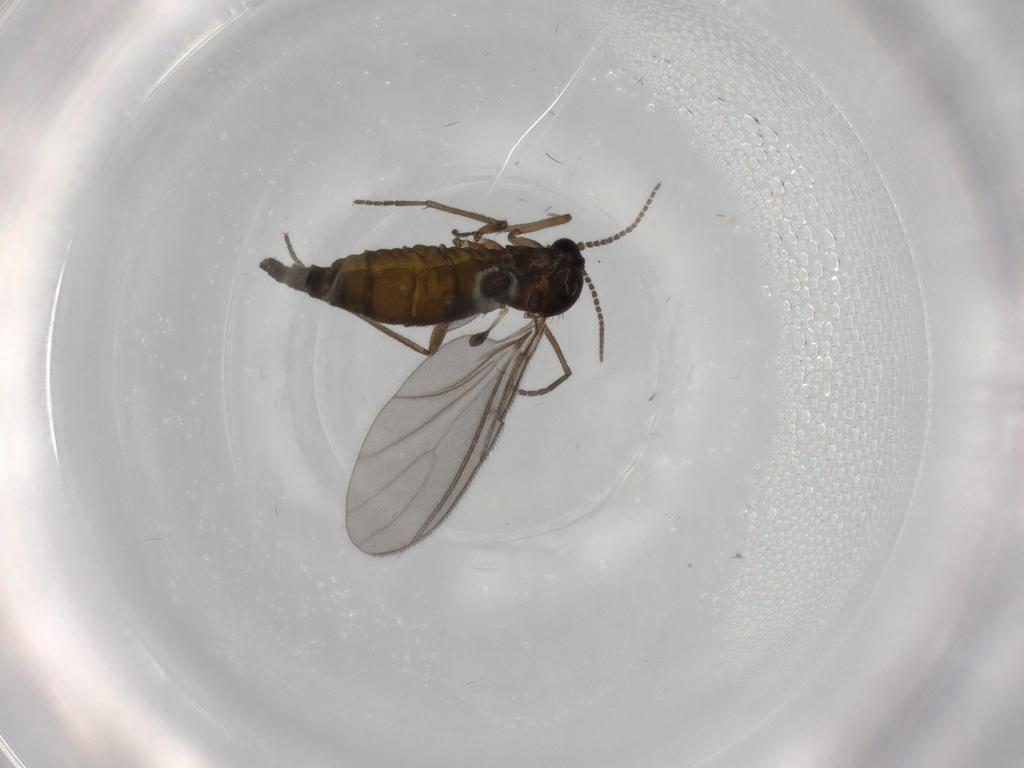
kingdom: Animalia
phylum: Arthropoda
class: Insecta
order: Diptera
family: Sciaridae
